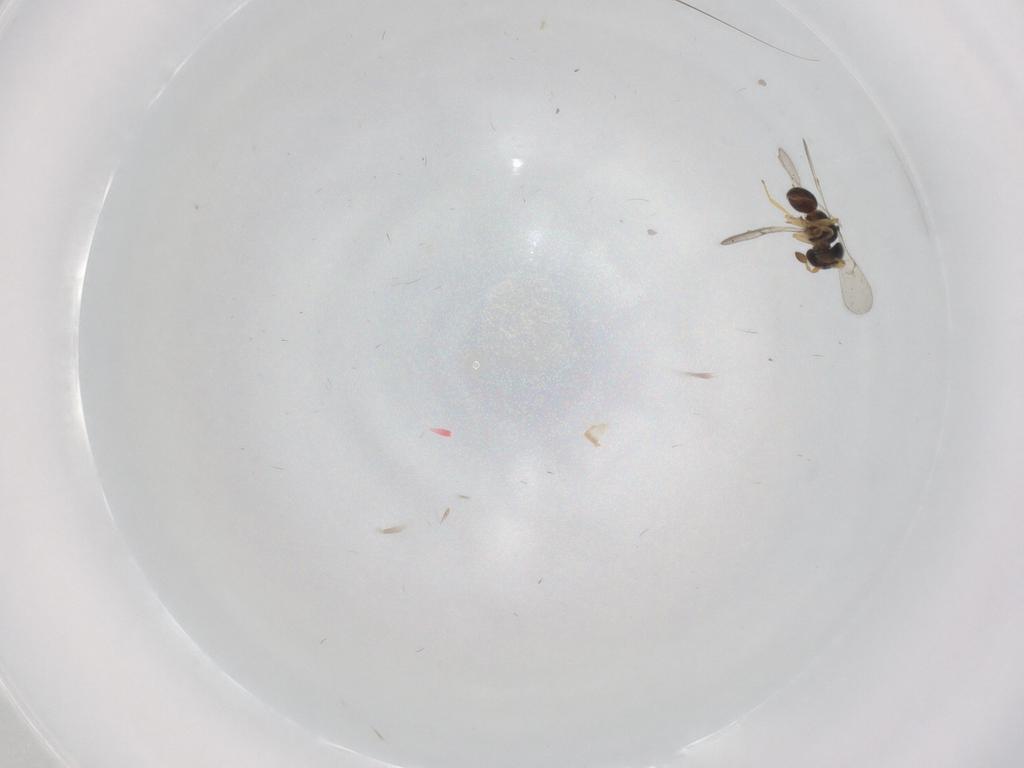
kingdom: Animalia
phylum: Arthropoda
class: Insecta
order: Hymenoptera
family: Scelionidae
